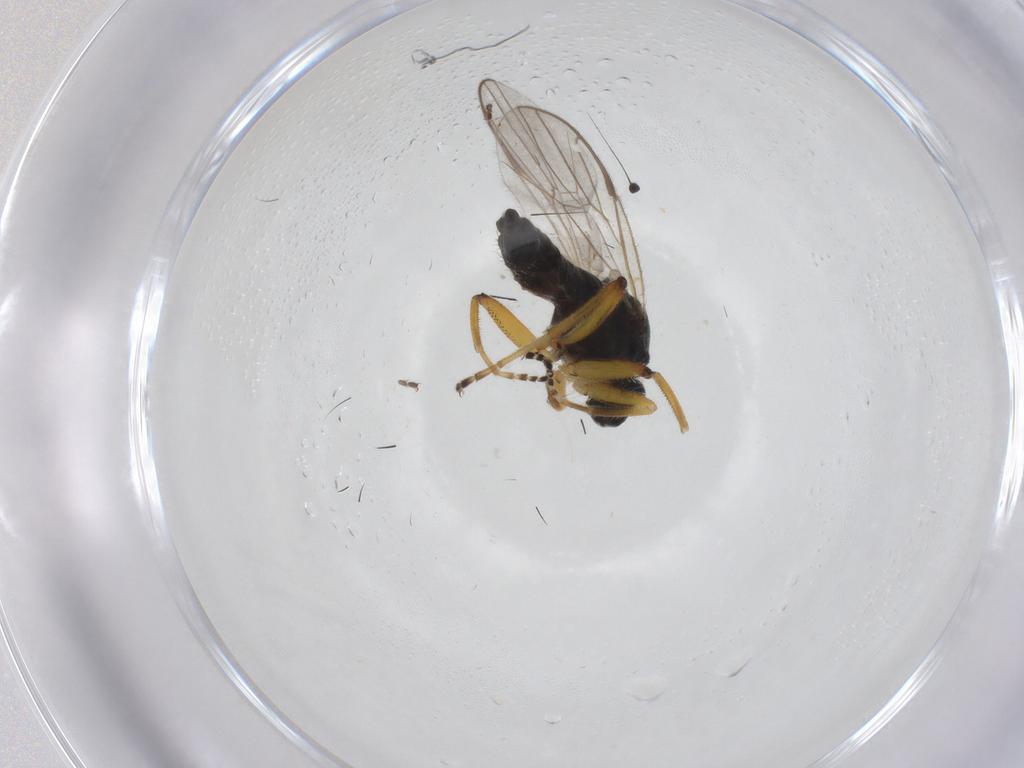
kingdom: Animalia
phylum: Arthropoda
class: Insecta
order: Diptera
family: Hybotidae
